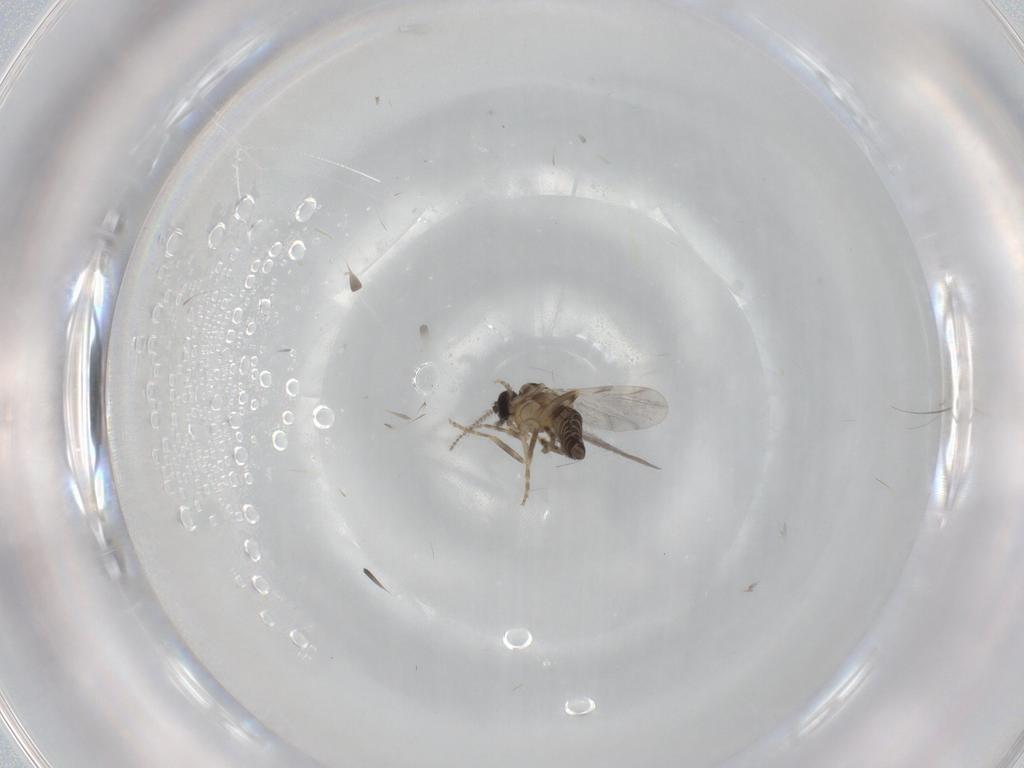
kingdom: Animalia
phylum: Arthropoda
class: Insecta
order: Diptera
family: Ceratopogonidae
